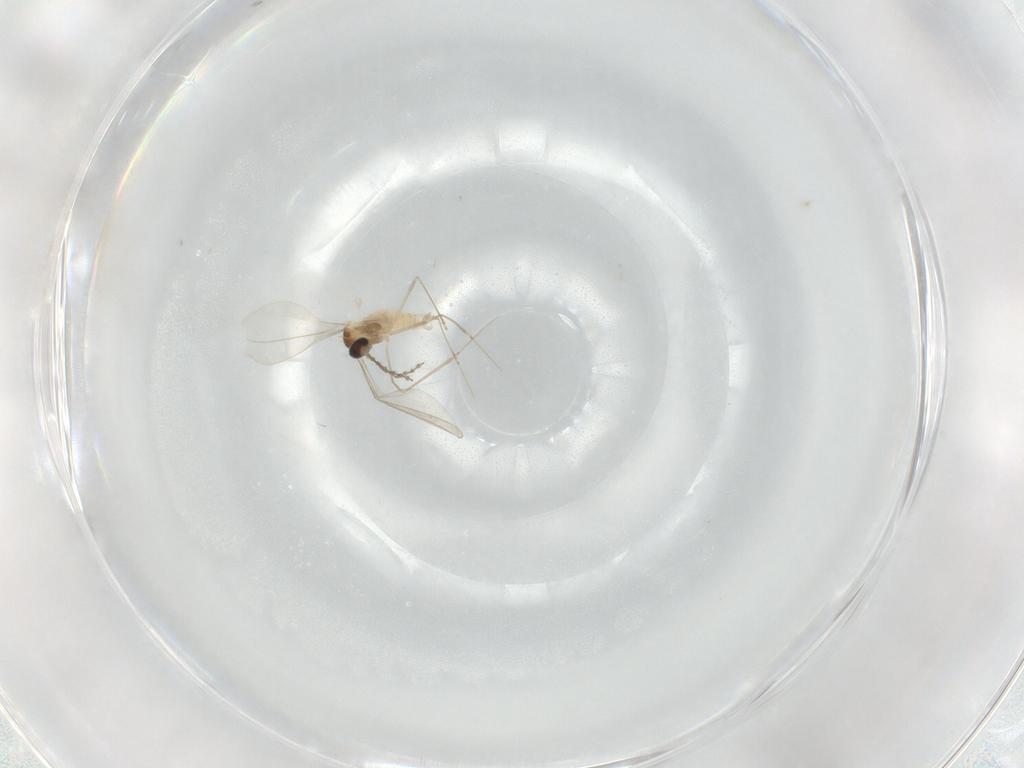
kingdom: Animalia
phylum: Arthropoda
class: Insecta
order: Diptera
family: Mycetophilidae
